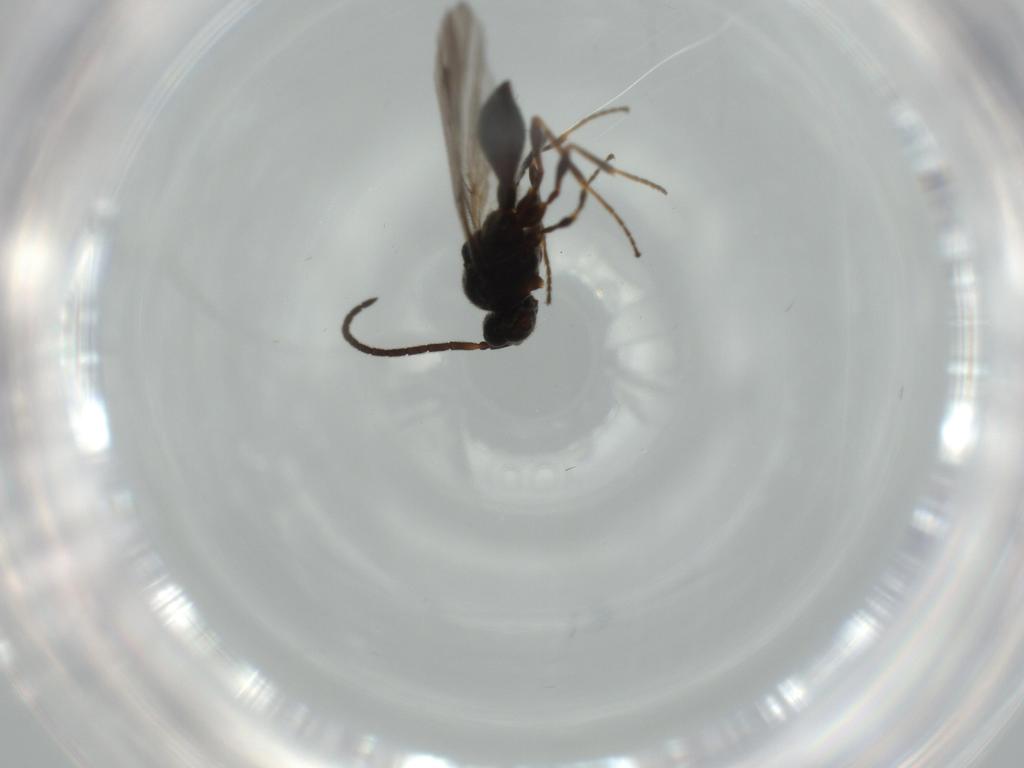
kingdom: Animalia
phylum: Arthropoda
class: Insecta
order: Hymenoptera
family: Diapriidae
